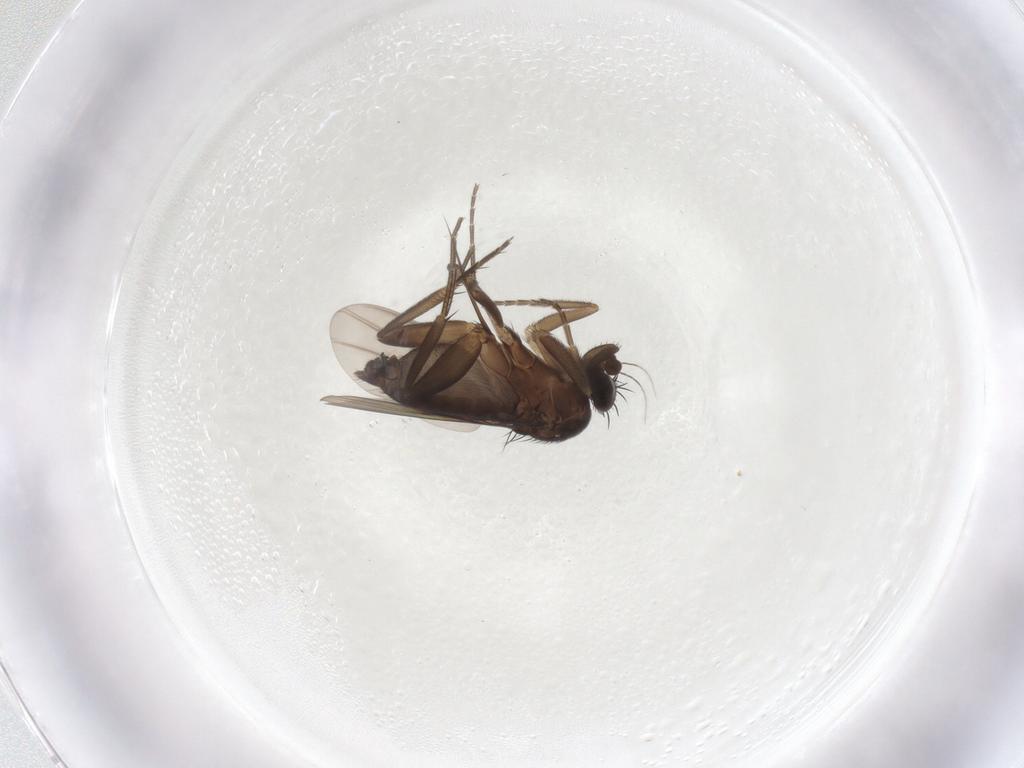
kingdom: Animalia
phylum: Arthropoda
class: Insecta
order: Diptera
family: Phoridae
